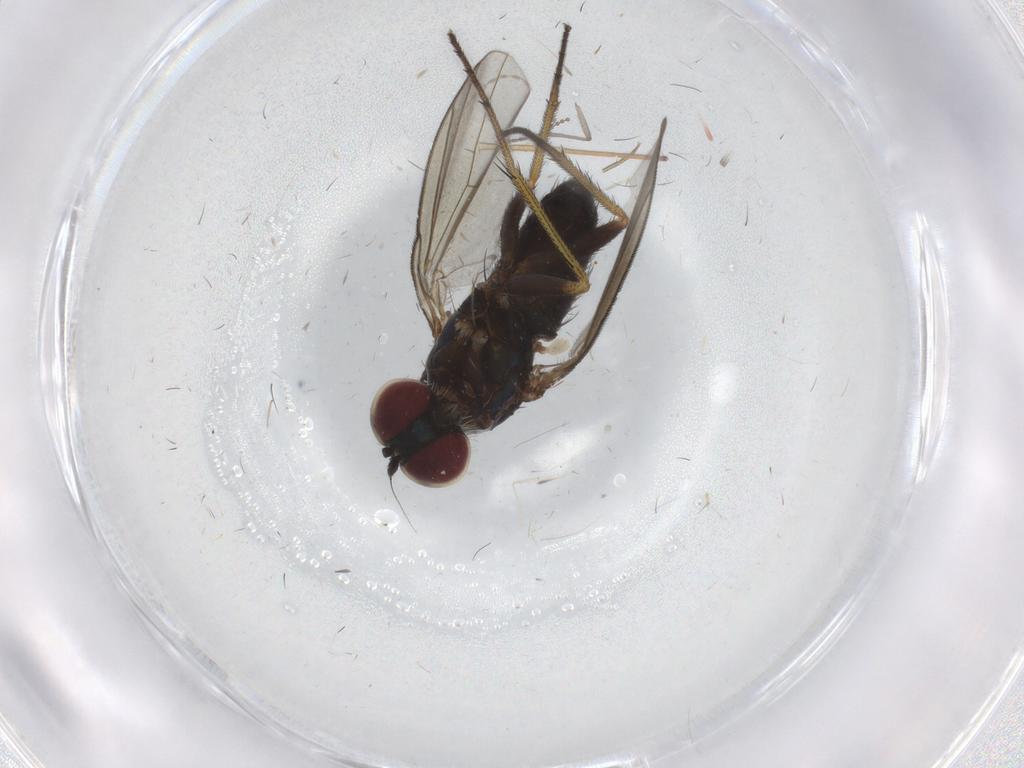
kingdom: Animalia
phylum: Arthropoda
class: Insecta
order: Diptera
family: Dolichopodidae
